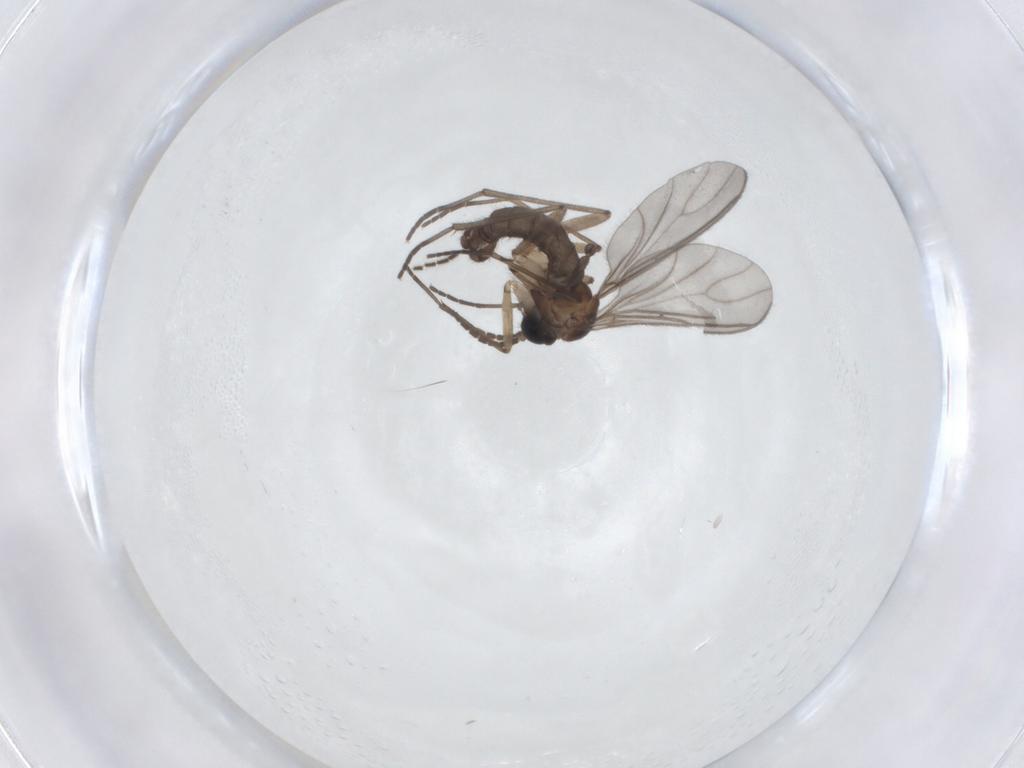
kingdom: Animalia
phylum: Arthropoda
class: Insecta
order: Diptera
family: Sciaridae
